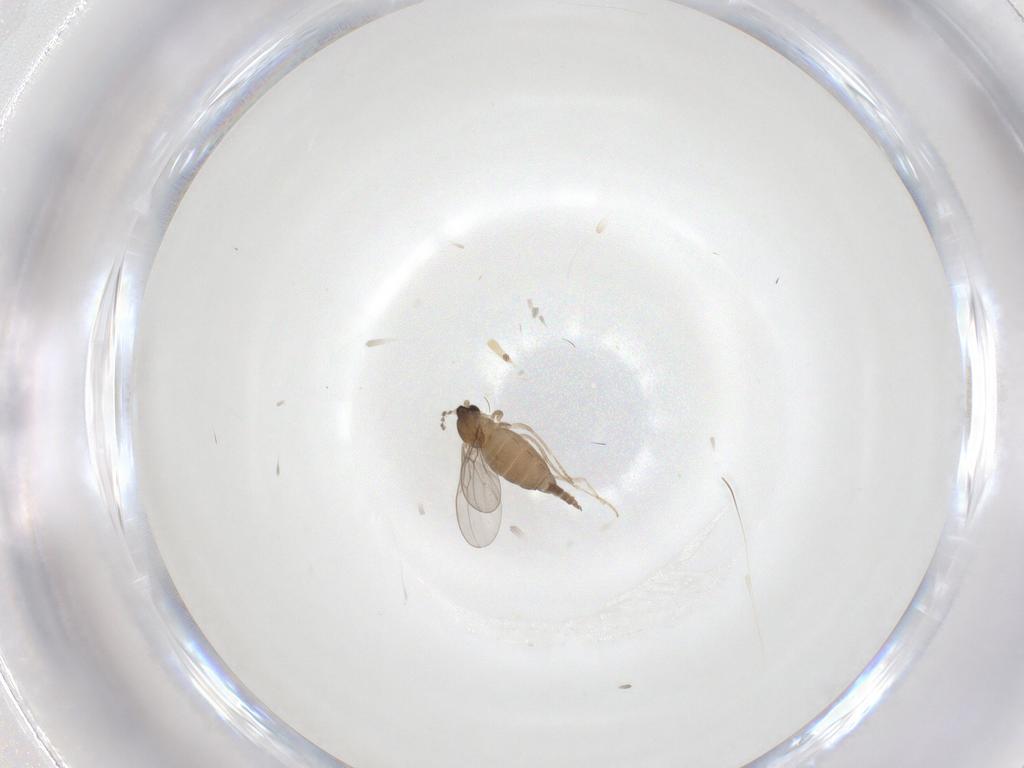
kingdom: Animalia
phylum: Arthropoda
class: Insecta
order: Diptera
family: Cecidomyiidae
